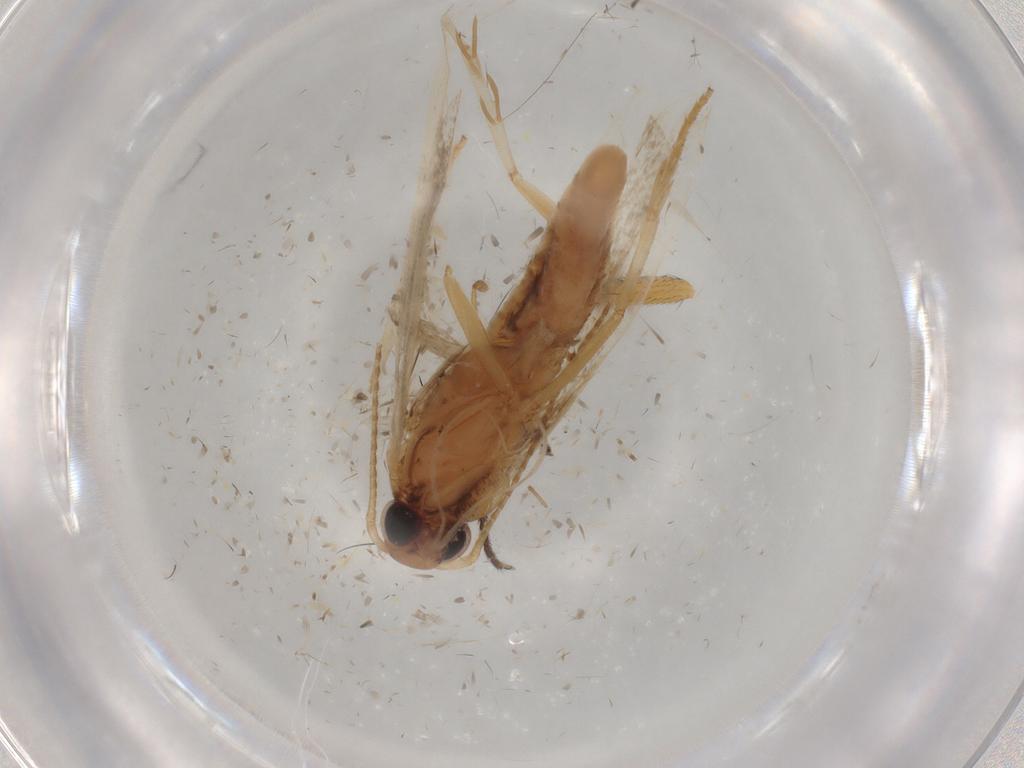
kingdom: Animalia
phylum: Arthropoda
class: Insecta
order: Lepidoptera
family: Gelechiidae
